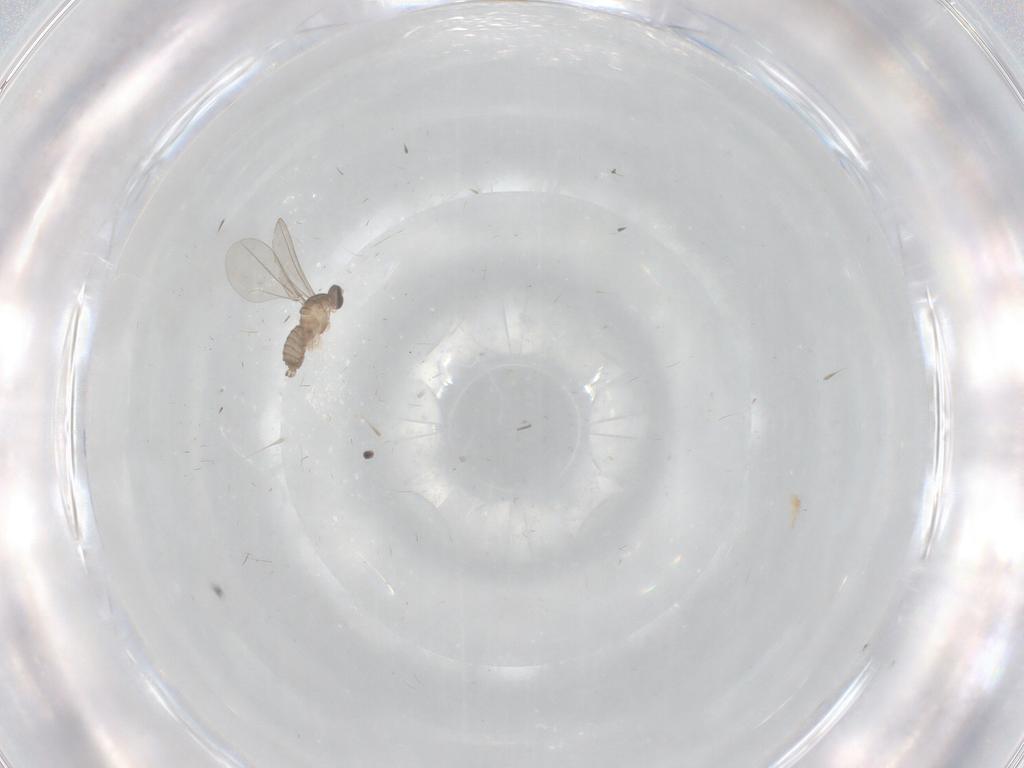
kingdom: Animalia
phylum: Arthropoda
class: Insecta
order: Diptera
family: Cecidomyiidae
